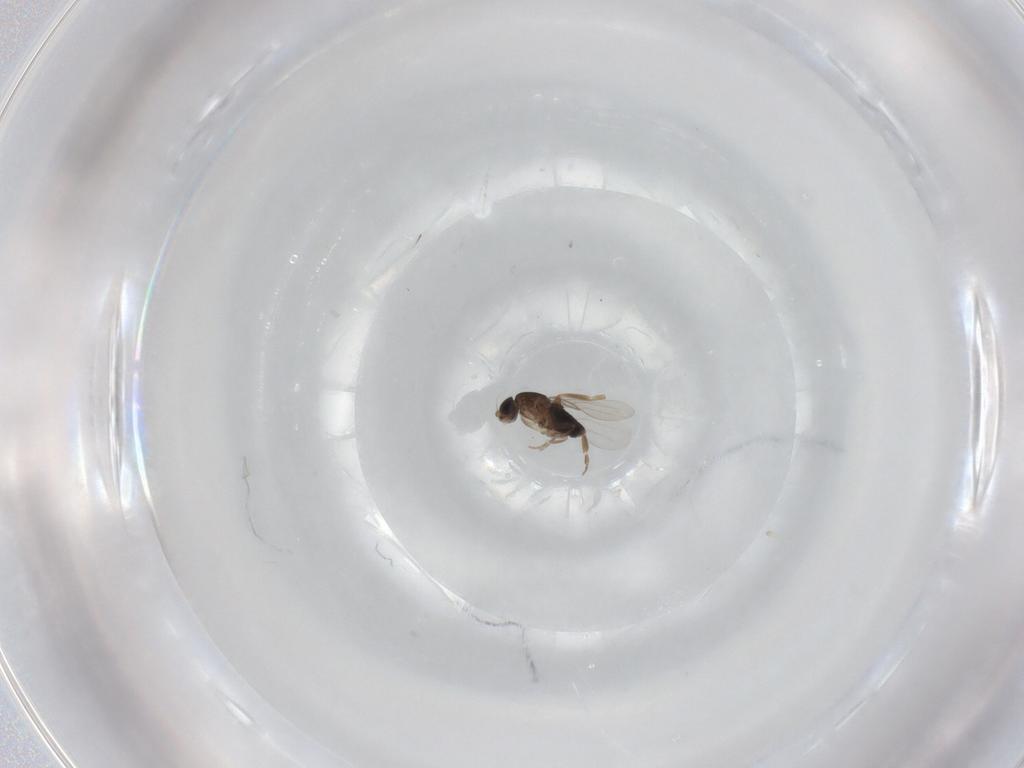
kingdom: Animalia
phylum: Arthropoda
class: Insecta
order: Diptera
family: Phoridae
